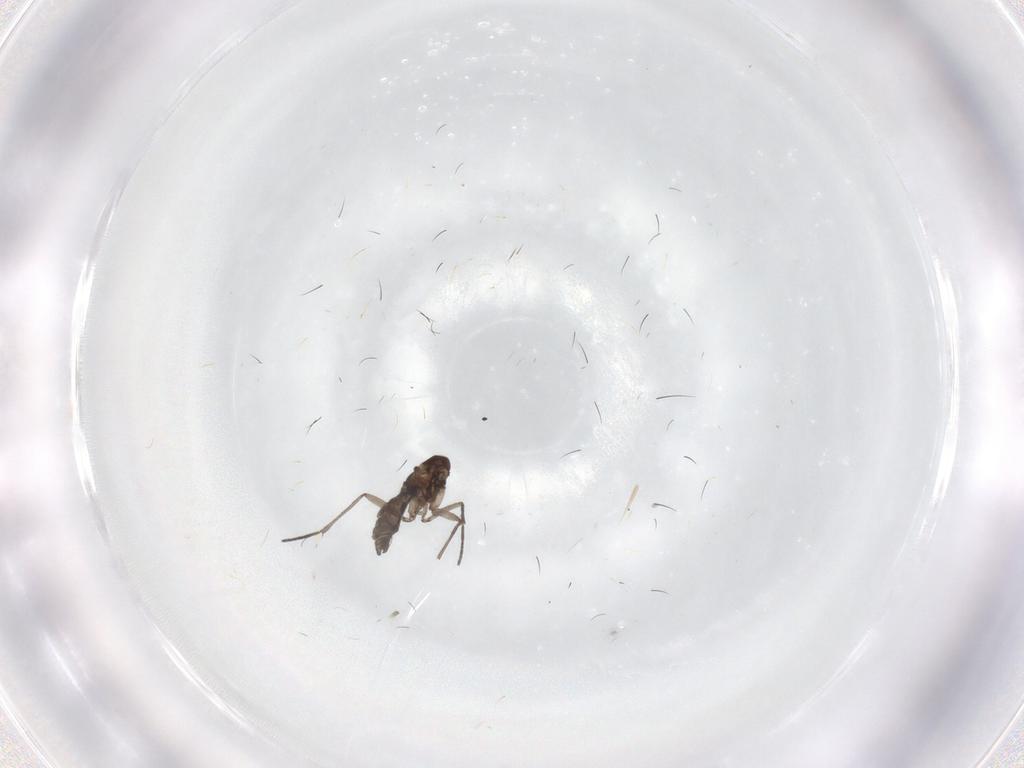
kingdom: Animalia
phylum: Arthropoda
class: Insecta
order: Diptera
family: Sciaridae
